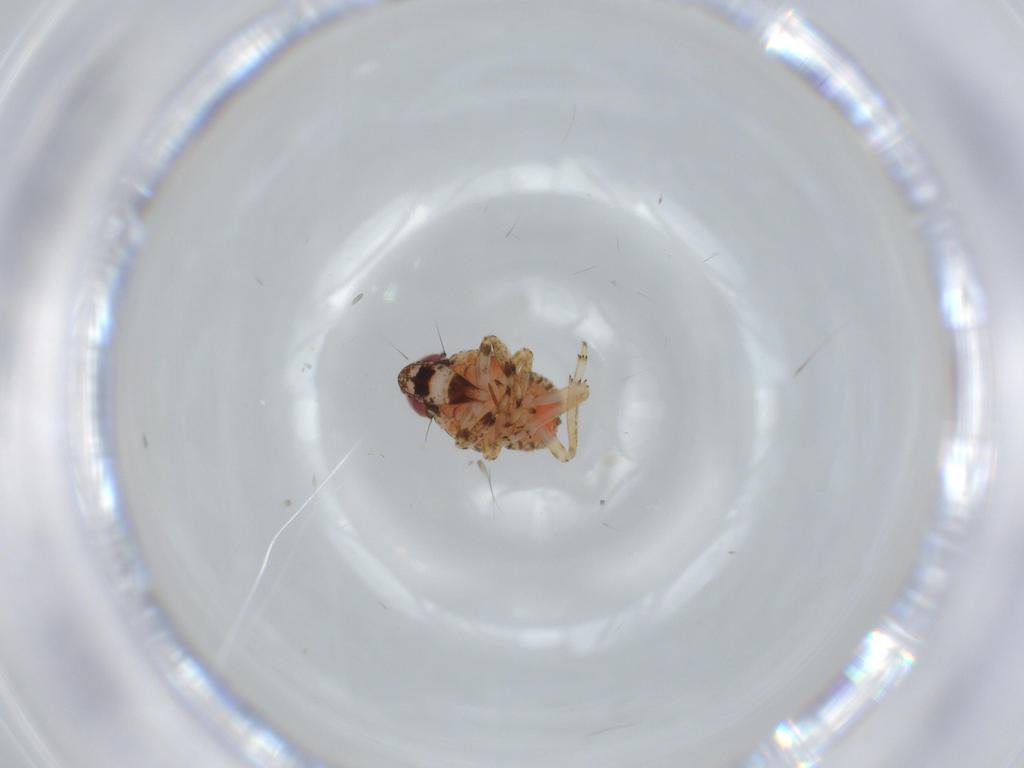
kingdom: Animalia
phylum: Arthropoda
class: Insecta
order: Hemiptera
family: Issidae
